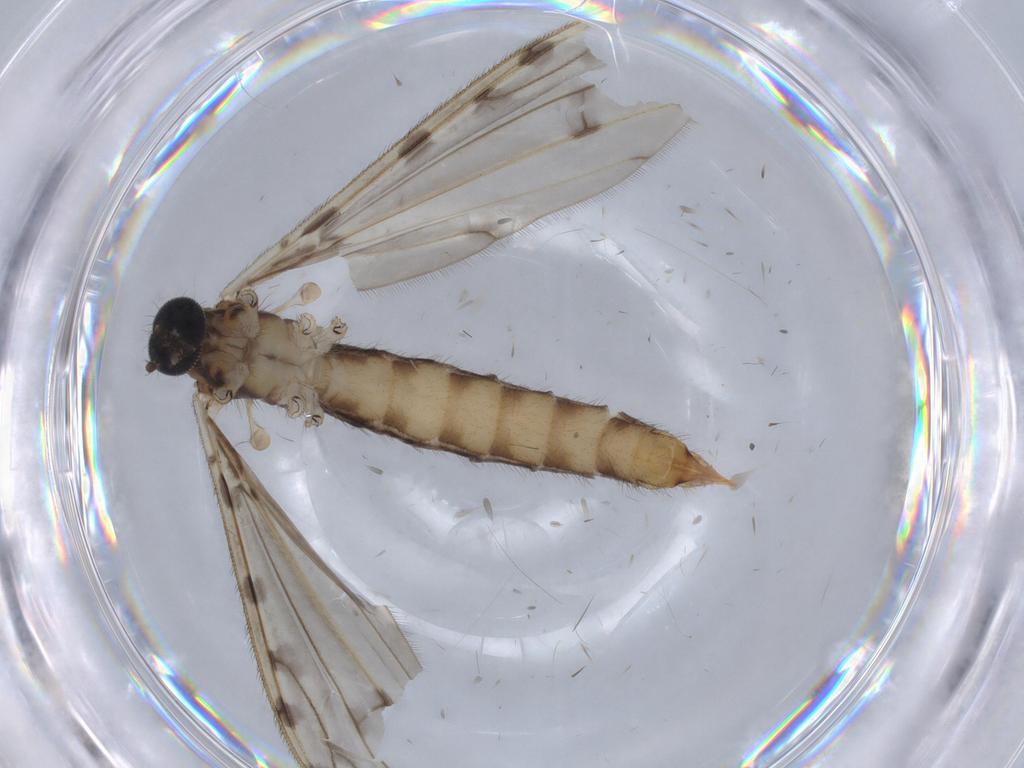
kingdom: Animalia
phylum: Arthropoda
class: Insecta
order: Diptera
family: Limoniidae
